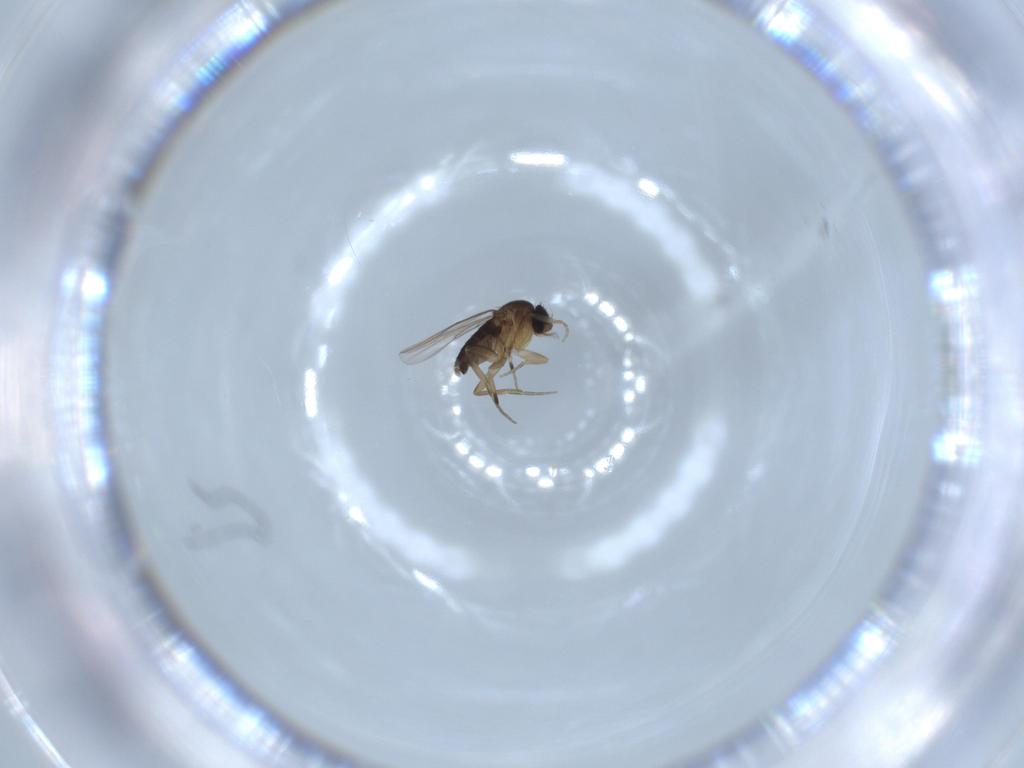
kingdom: Animalia
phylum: Arthropoda
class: Insecta
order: Diptera
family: Phoridae
